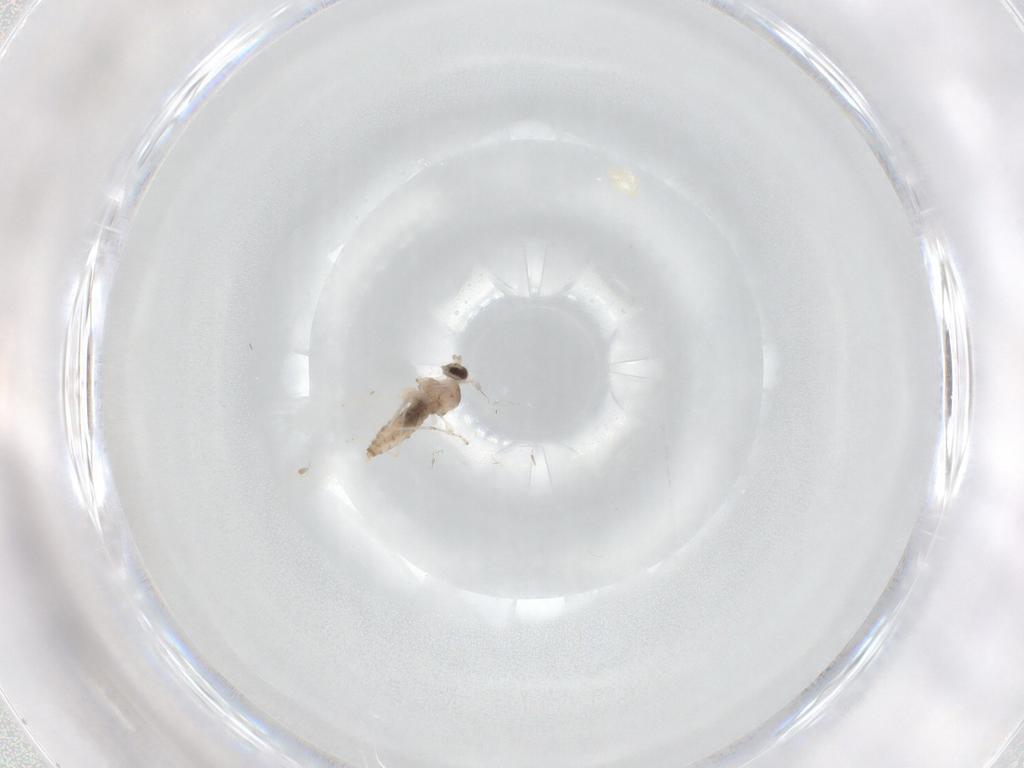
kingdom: Animalia
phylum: Arthropoda
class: Insecta
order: Diptera
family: Cecidomyiidae
